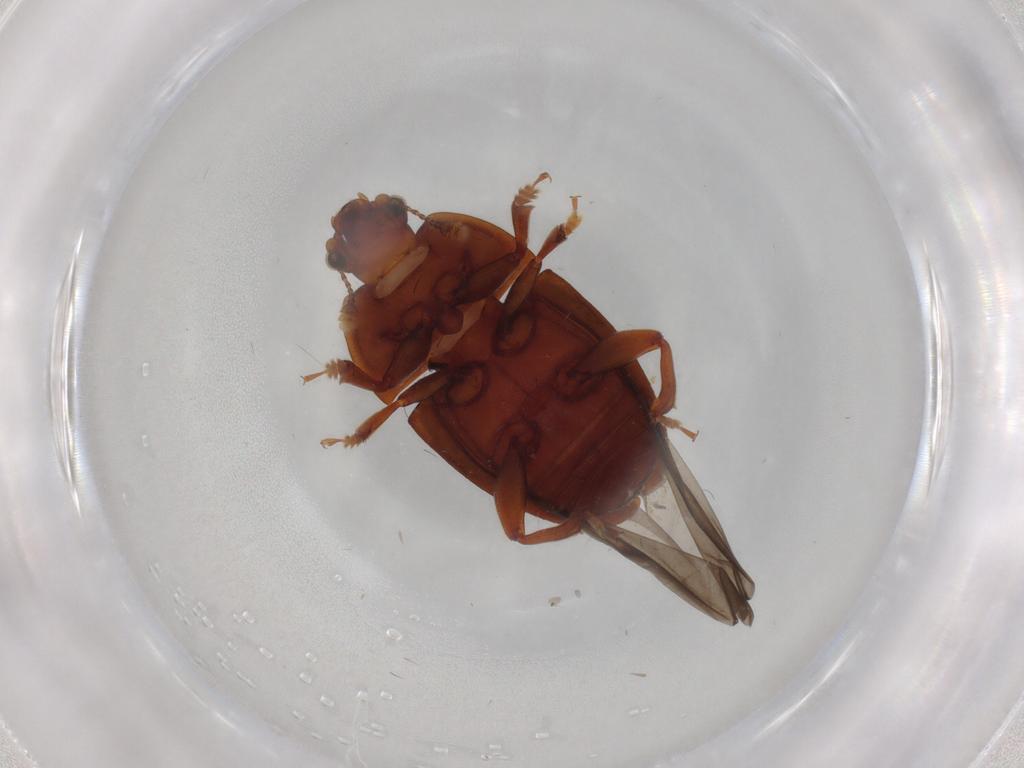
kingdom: Animalia
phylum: Arthropoda
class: Insecta
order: Coleoptera
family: Nitidulidae
